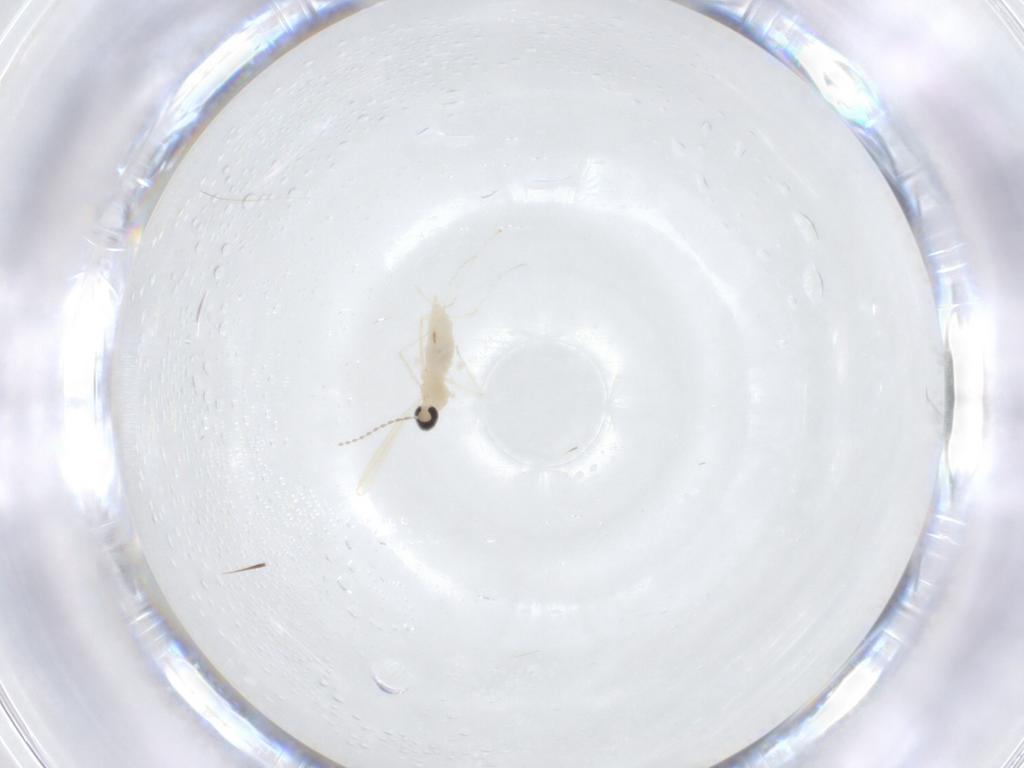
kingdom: Animalia
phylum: Arthropoda
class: Insecta
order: Diptera
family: Cecidomyiidae
